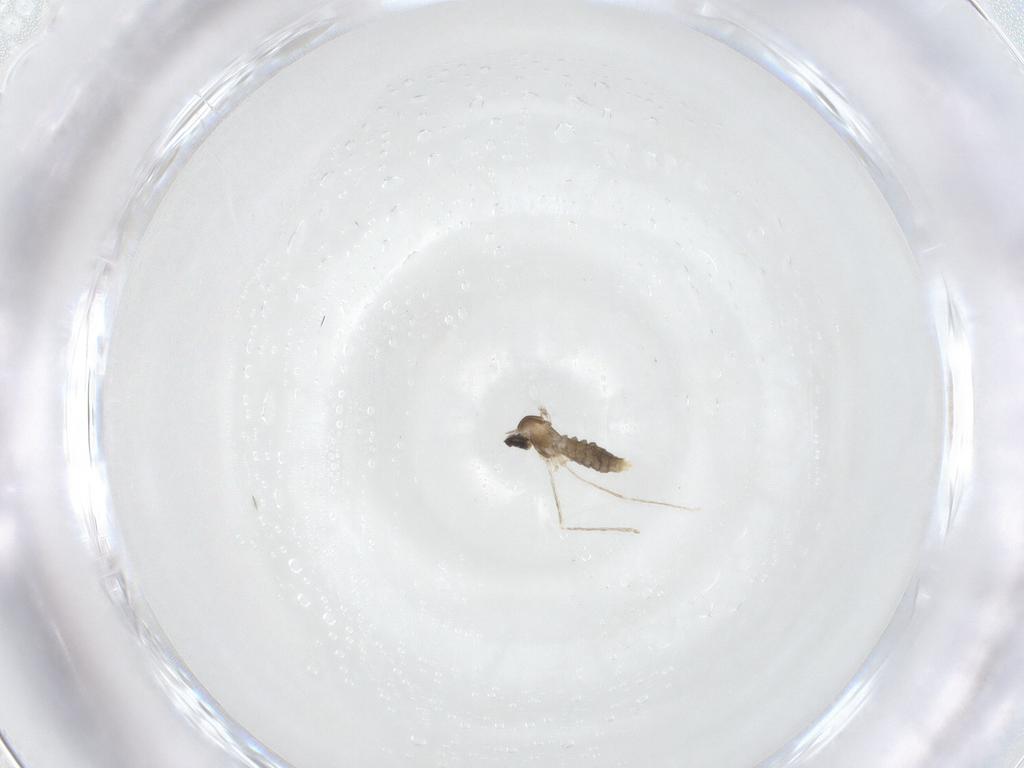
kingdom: Animalia
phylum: Arthropoda
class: Insecta
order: Diptera
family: Cecidomyiidae
